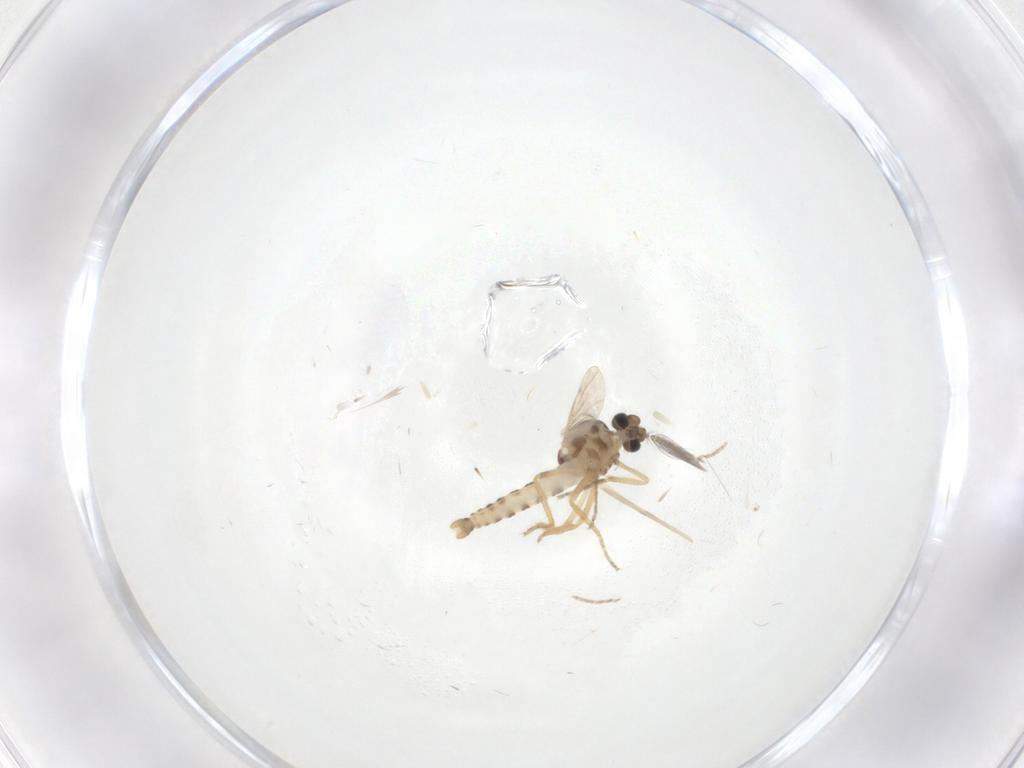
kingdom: Animalia
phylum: Arthropoda
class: Insecta
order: Diptera
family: Ceratopogonidae
